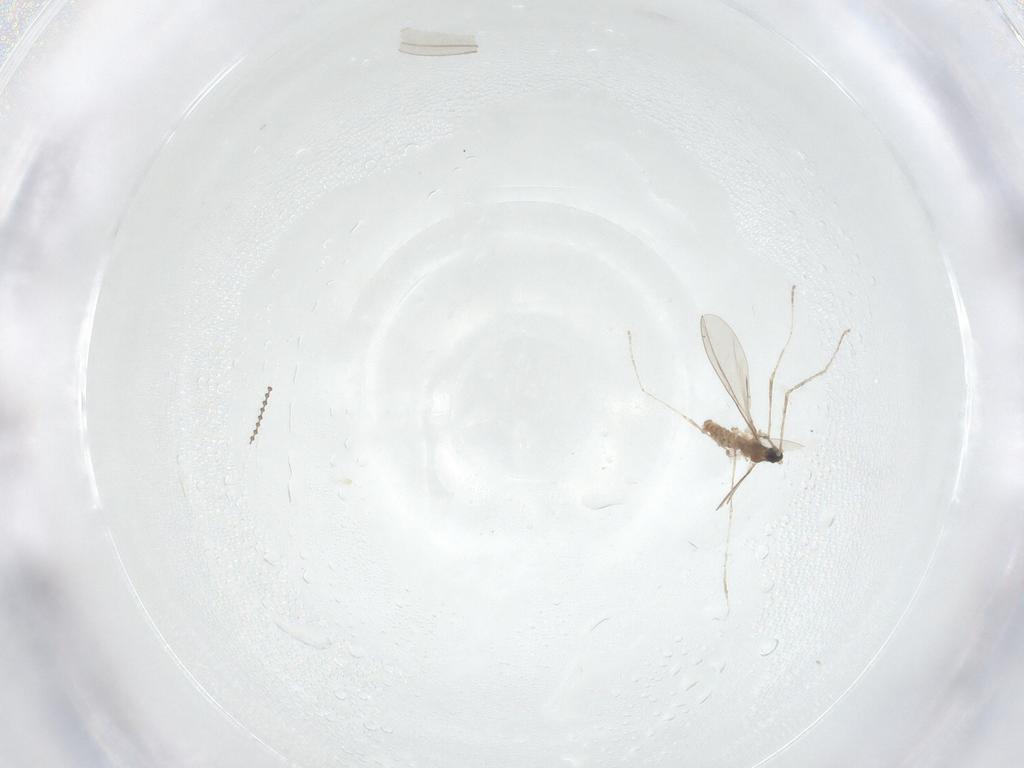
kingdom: Animalia
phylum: Arthropoda
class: Insecta
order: Diptera
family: Cecidomyiidae
